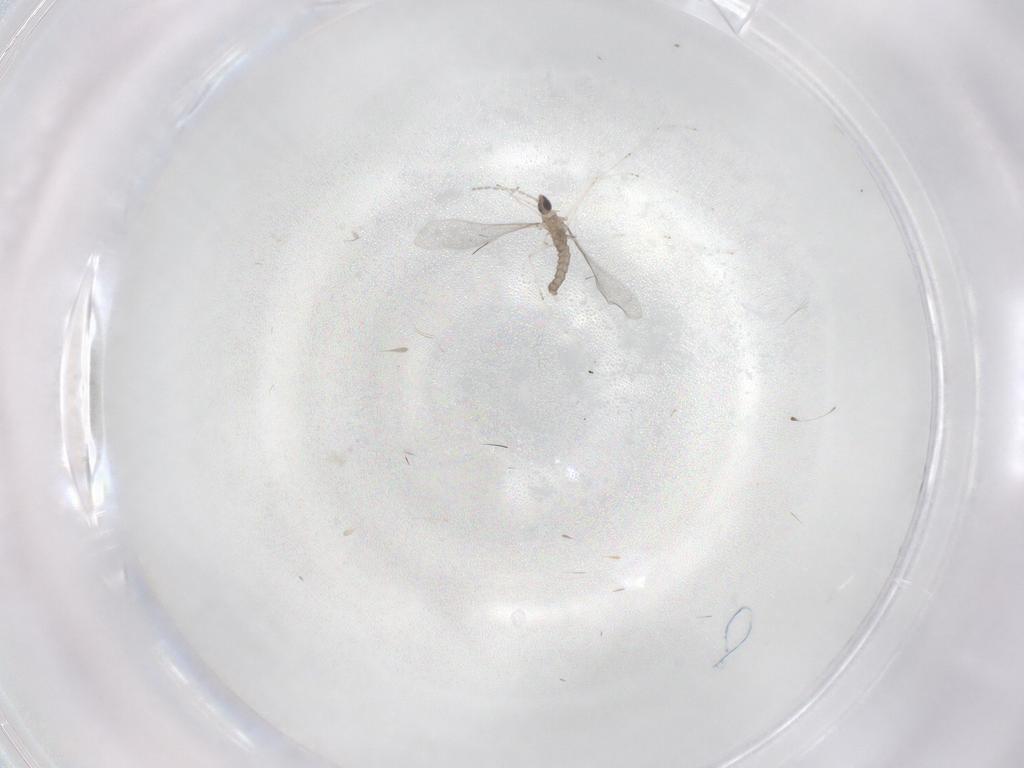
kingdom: Animalia
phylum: Arthropoda
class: Insecta
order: Diptera
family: Cecidomyiidae
